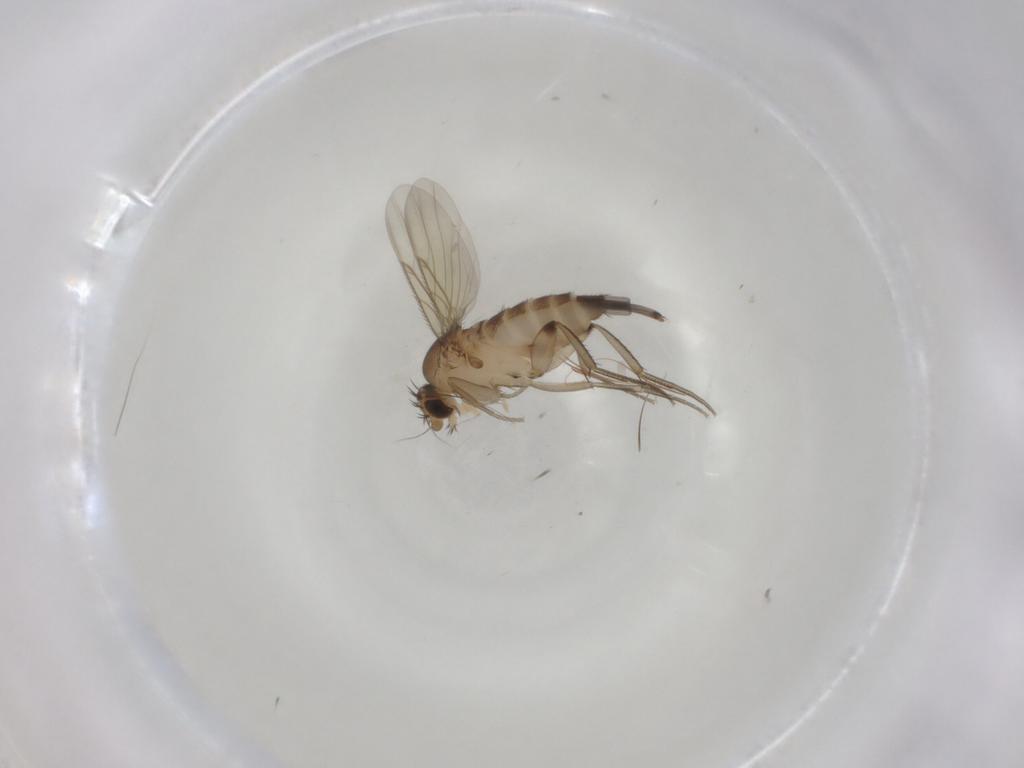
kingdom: Animalia
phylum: Arthropoda
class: Insecta
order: Diptera
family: Phoridae
